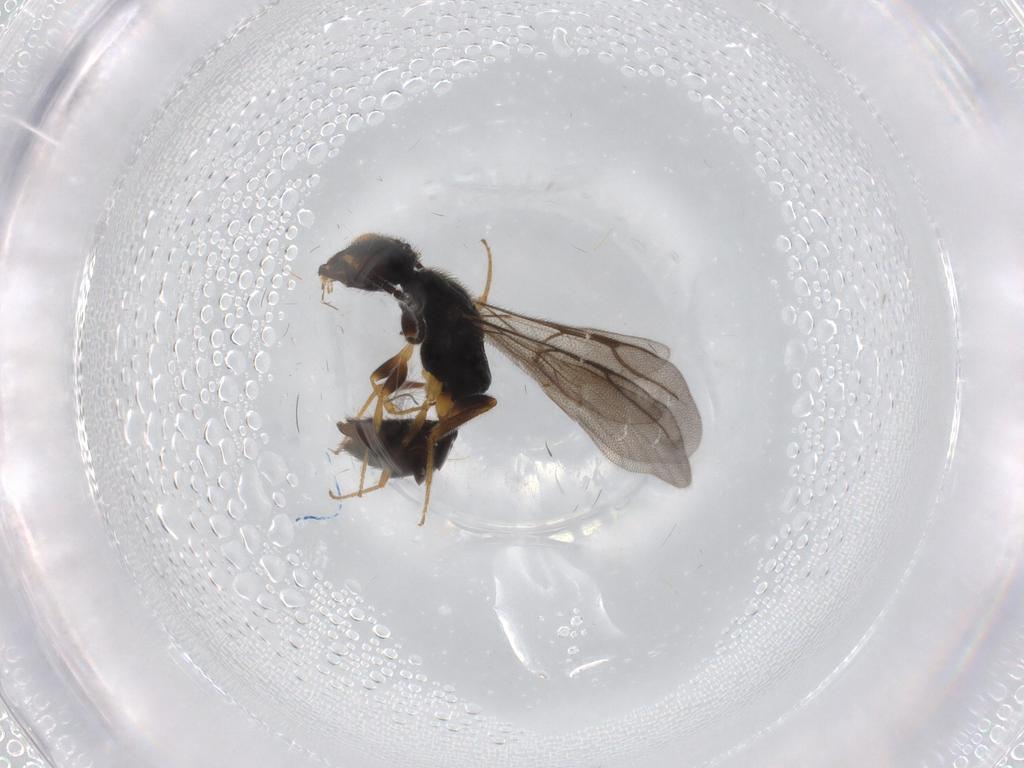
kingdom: Animalia
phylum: Arthropoda
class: Insecta
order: Hymenoptera
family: Bethylidae
